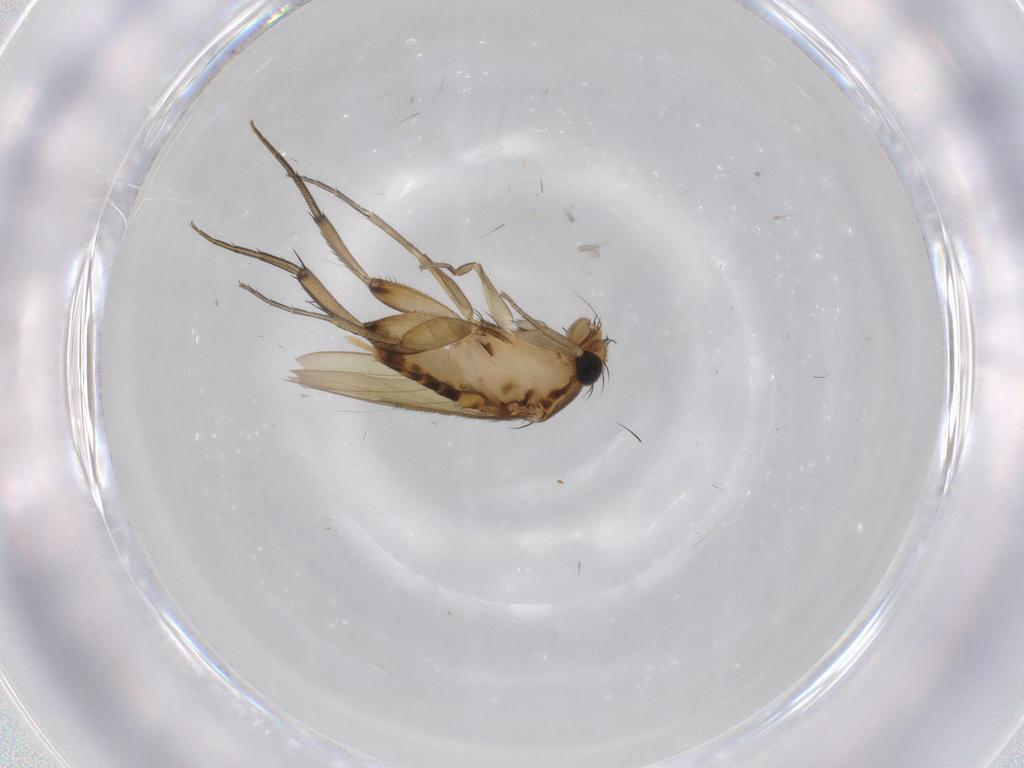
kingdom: Animalia
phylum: Arthropoda
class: Insecta
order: Diptera
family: Phoridae
